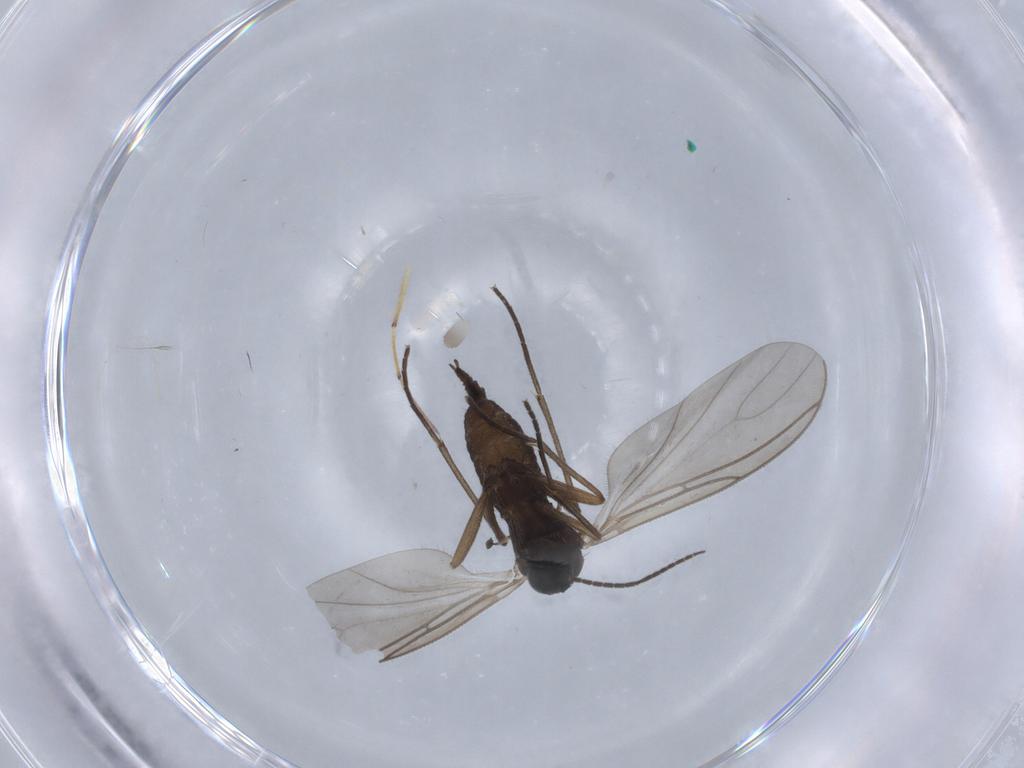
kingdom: Animalia
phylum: Arthropoda
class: Insecta
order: Diptera
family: Sciaridae
